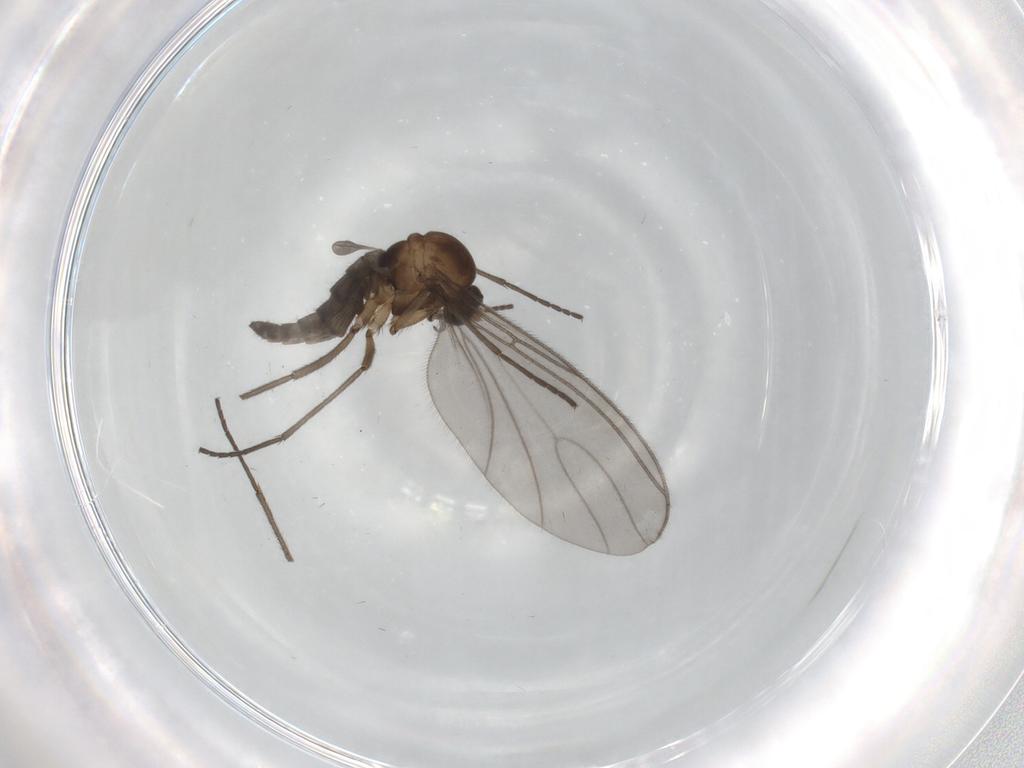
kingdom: Animalia
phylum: Arthropoda
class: Insecta
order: Diptera
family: Sciaridae
